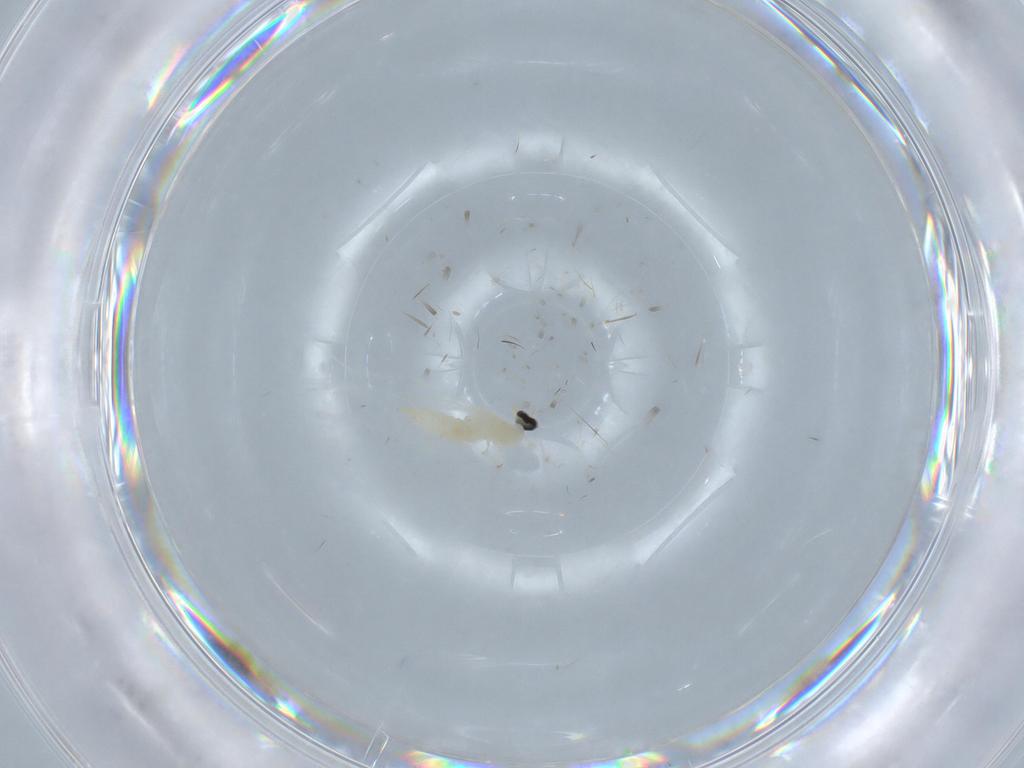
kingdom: Animalia
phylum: Arthropoda
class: Insecta
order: Diptera
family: Cecidomyiidae
